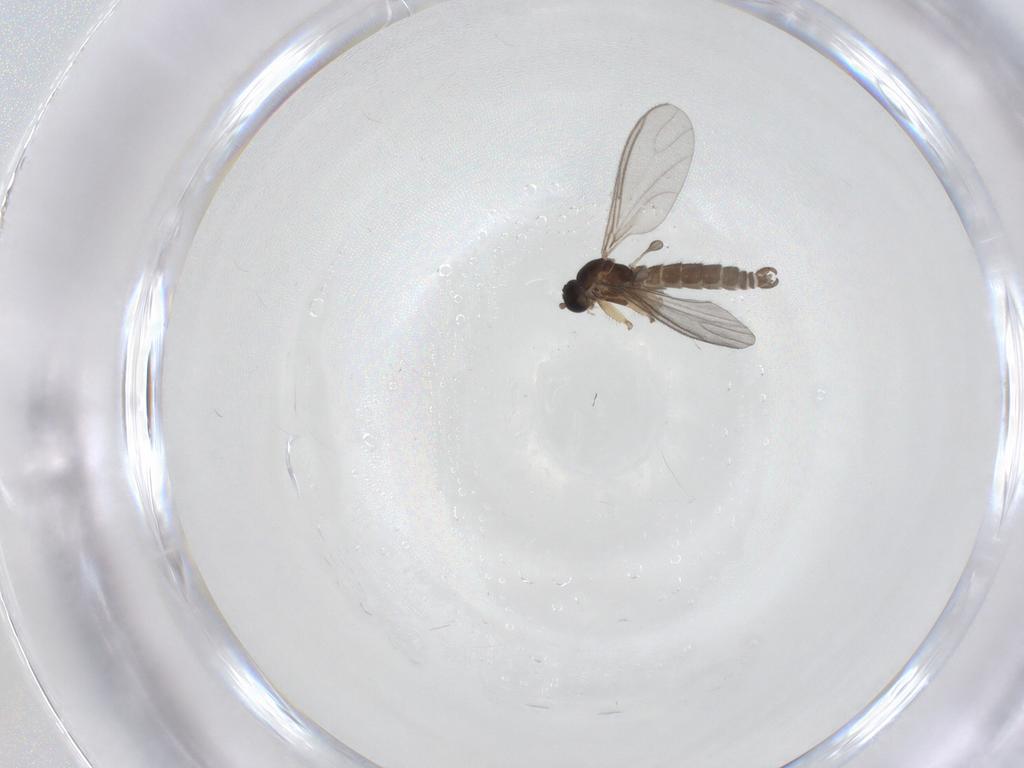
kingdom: Animalia
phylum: Arthropoda
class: Insecta
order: Diptera
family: Sciaridae
